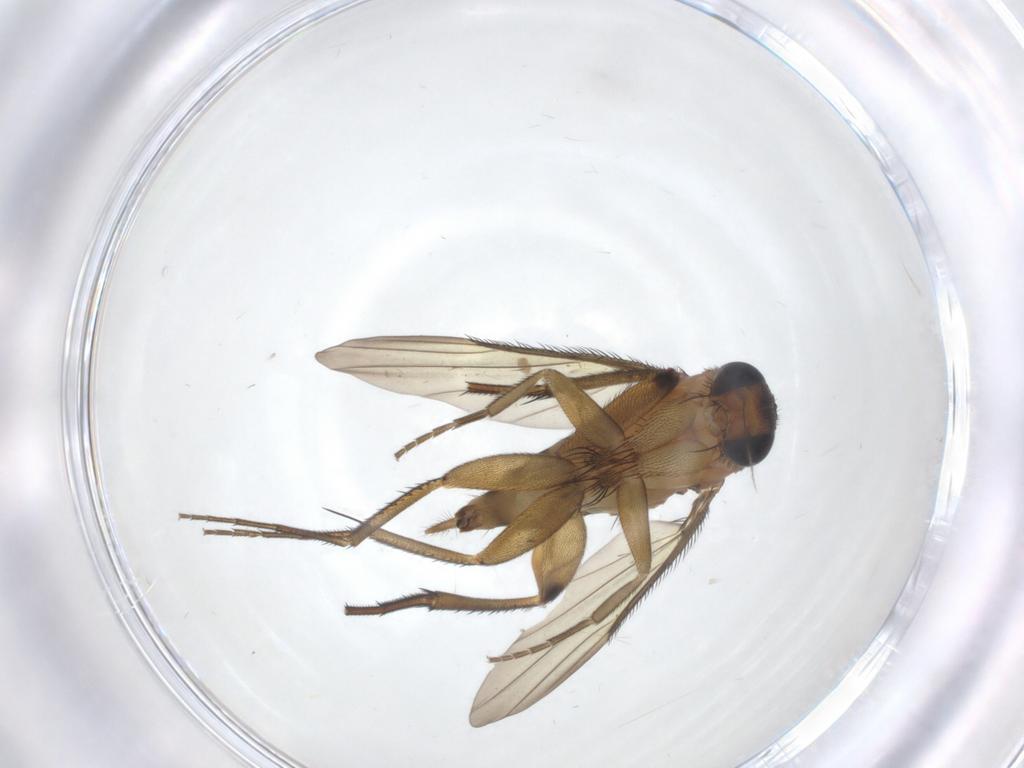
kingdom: Animalia
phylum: Arthropoda
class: Insecta
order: Diptera
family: Cecidomyiidae
